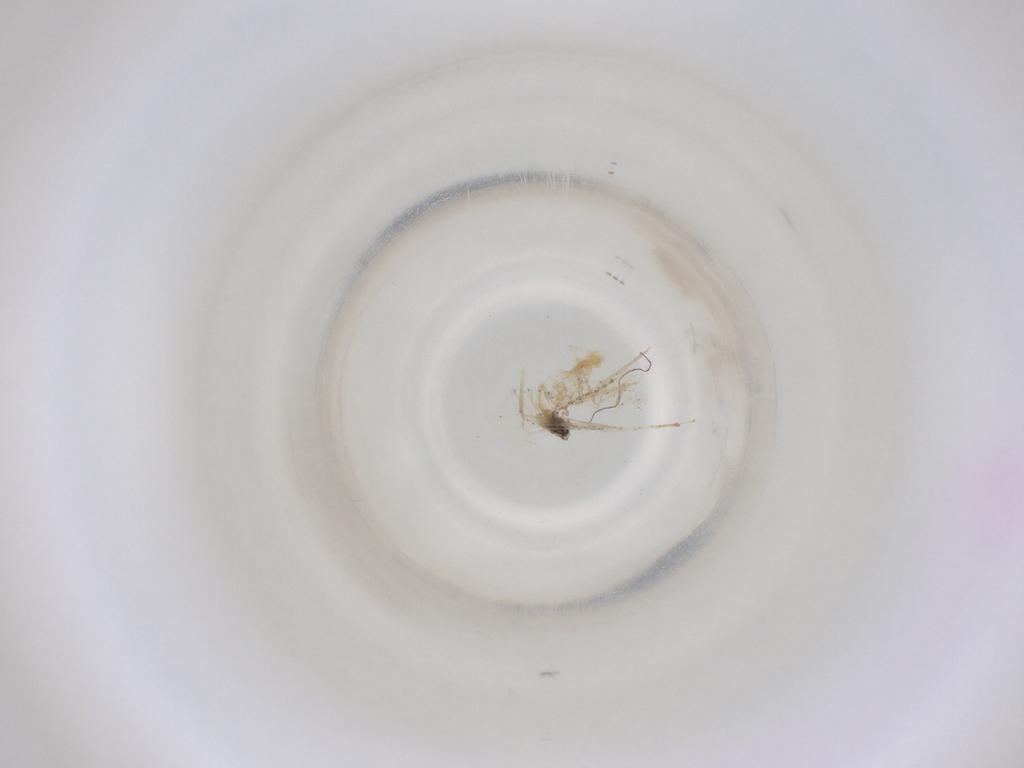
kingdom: Animalia
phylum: Arthropoda
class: Insecta
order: Diptera
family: Cecidomyiidae
